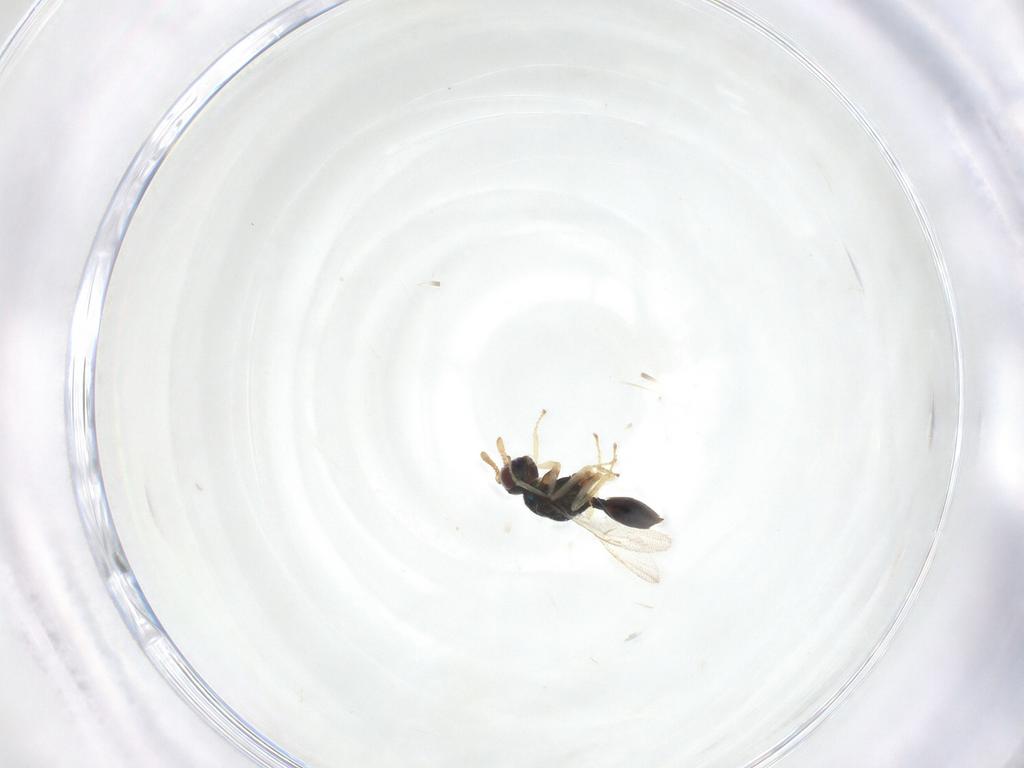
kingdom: Animalia
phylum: Arthropoda
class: Insecta
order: Hymenoptera
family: Pteromalidae
